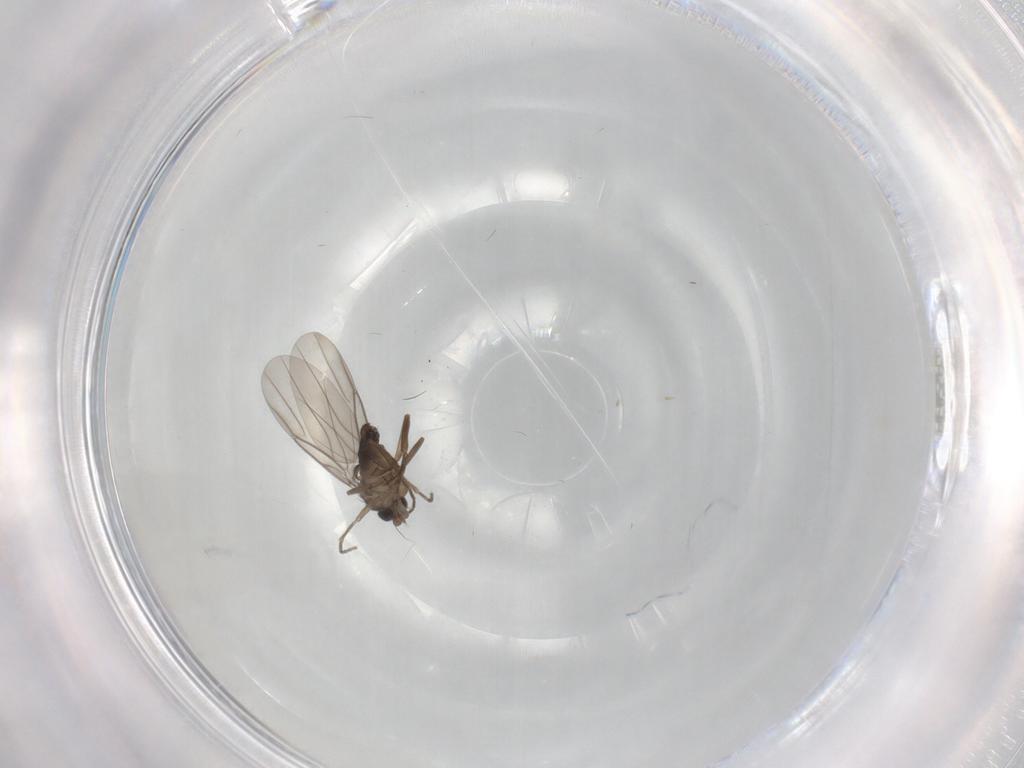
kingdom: Animalia
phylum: Arthropoda
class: Insecta
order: Diptera
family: Phoridae
